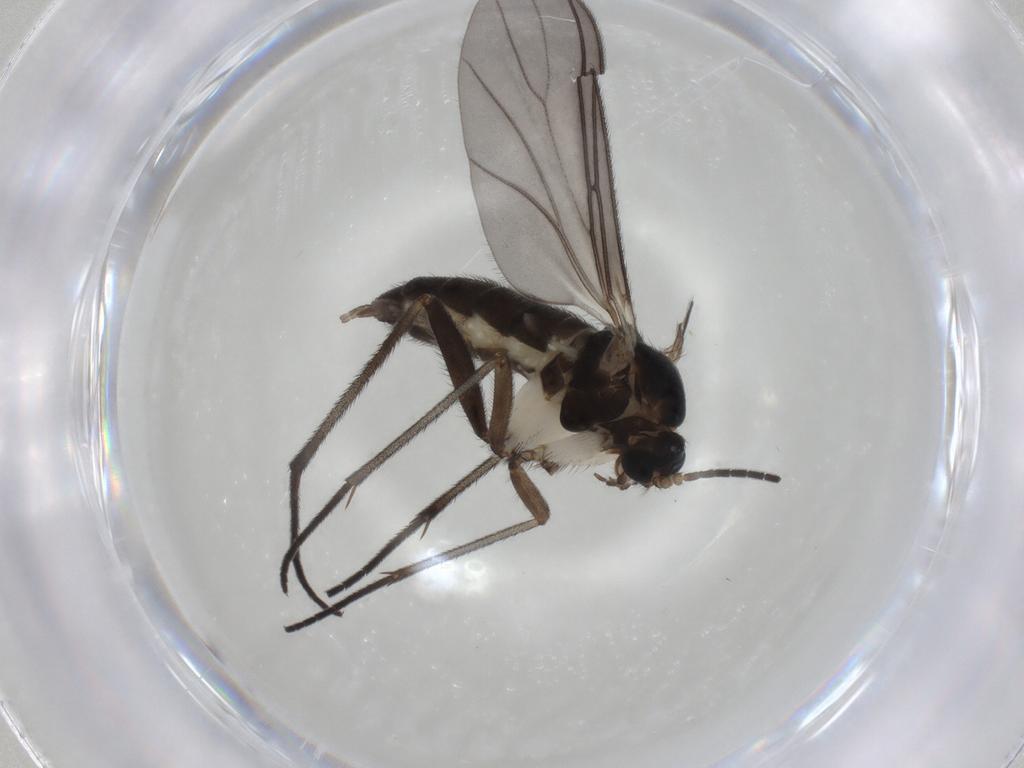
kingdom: Animalia
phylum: Arthropoda
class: Insecta
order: Diptera
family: Sciaridae
